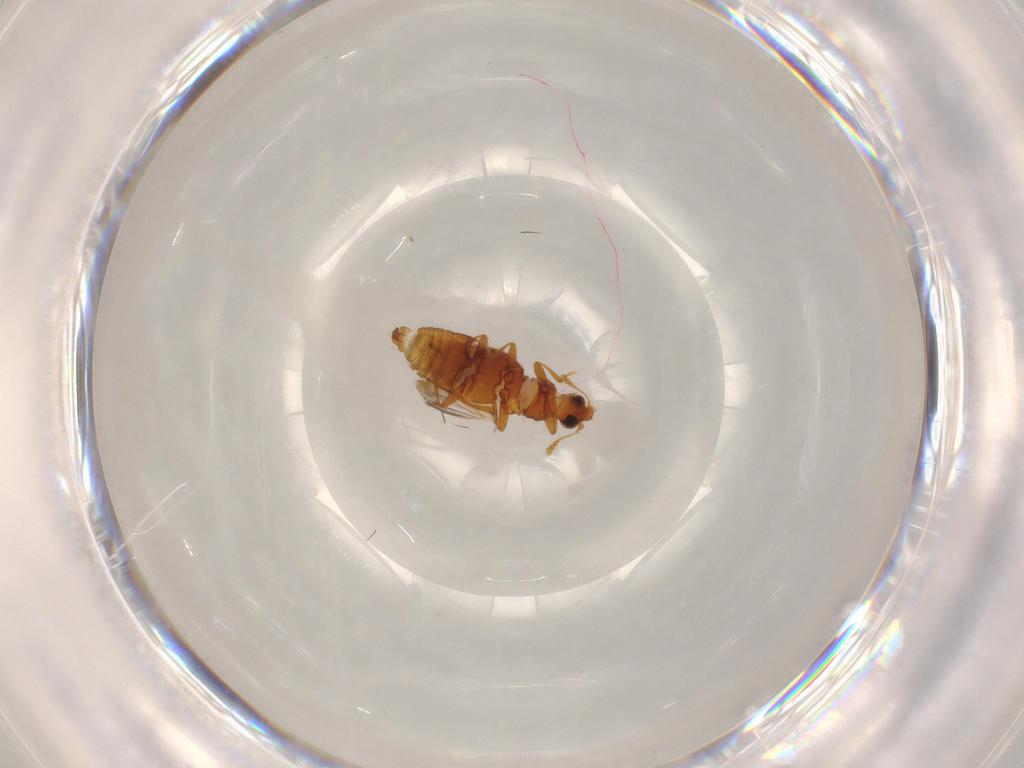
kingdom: Animalia
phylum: Arthropoda
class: Insecta
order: Coleoptera
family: Latridiidae
